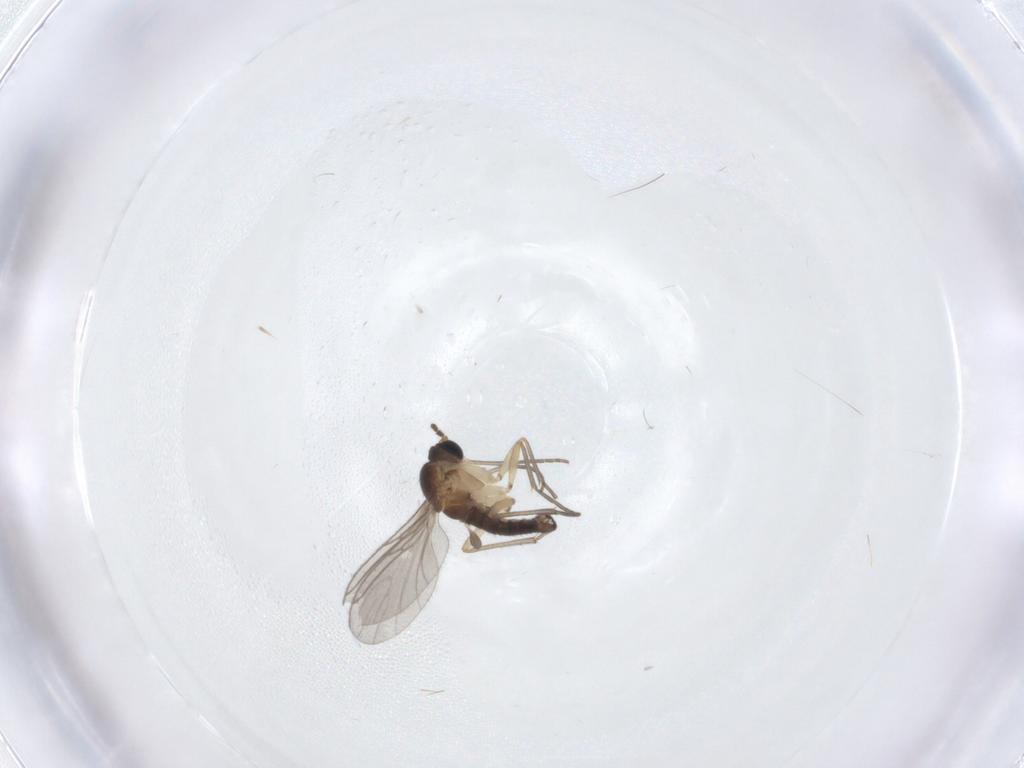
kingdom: Animalia
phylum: Arthropoda
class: Insecta
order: Diptera
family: Sciaridae
